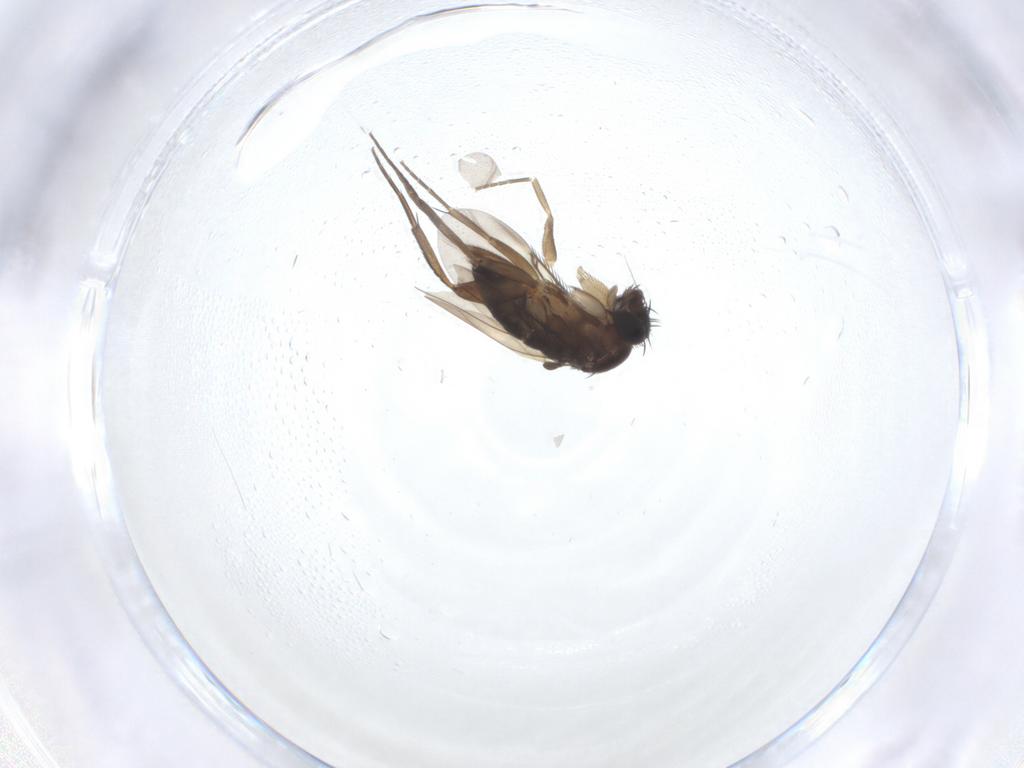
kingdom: Animalia
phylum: Arthropoda
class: Insecta
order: Diptera
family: Phoridae
